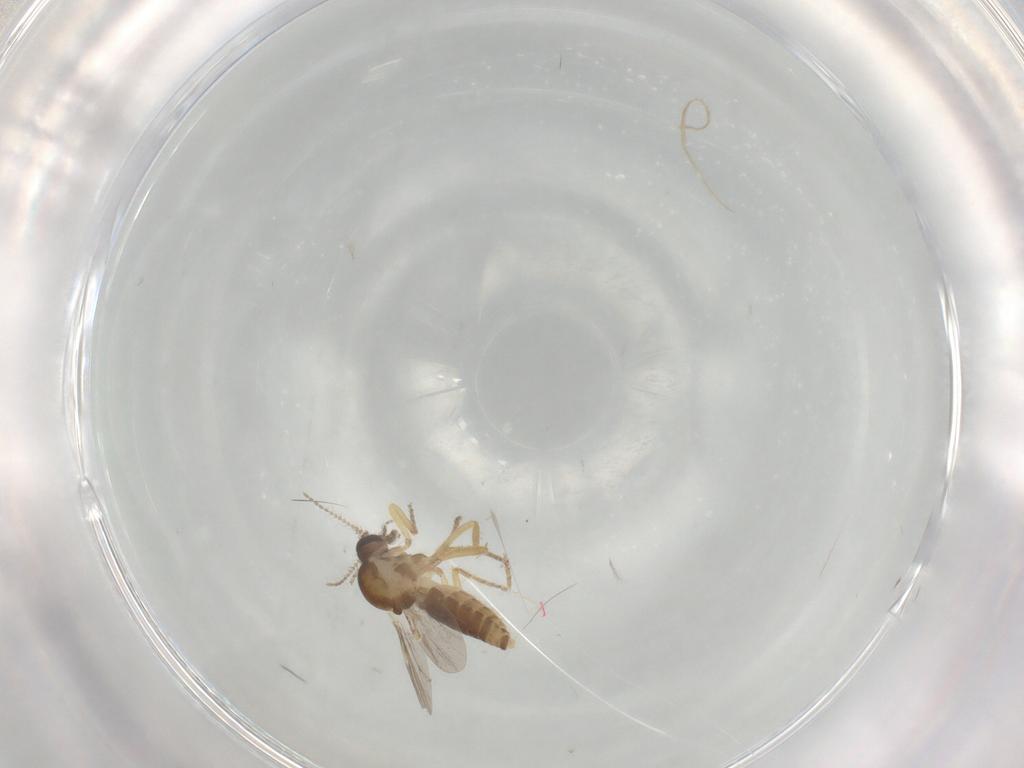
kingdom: Animalia
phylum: Arthropoda
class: Insecta
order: Diptera
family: Ceratopogonidae
